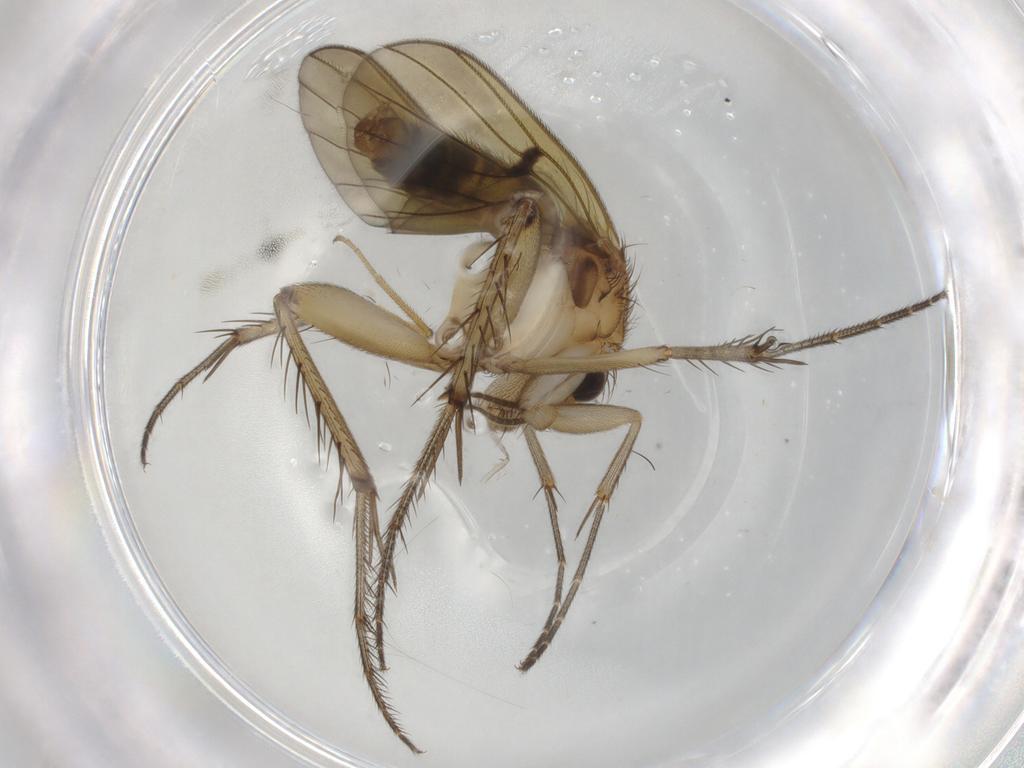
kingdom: Animalia
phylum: Arthropoda
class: Insecta
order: Diptera
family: Mycetophilidae
